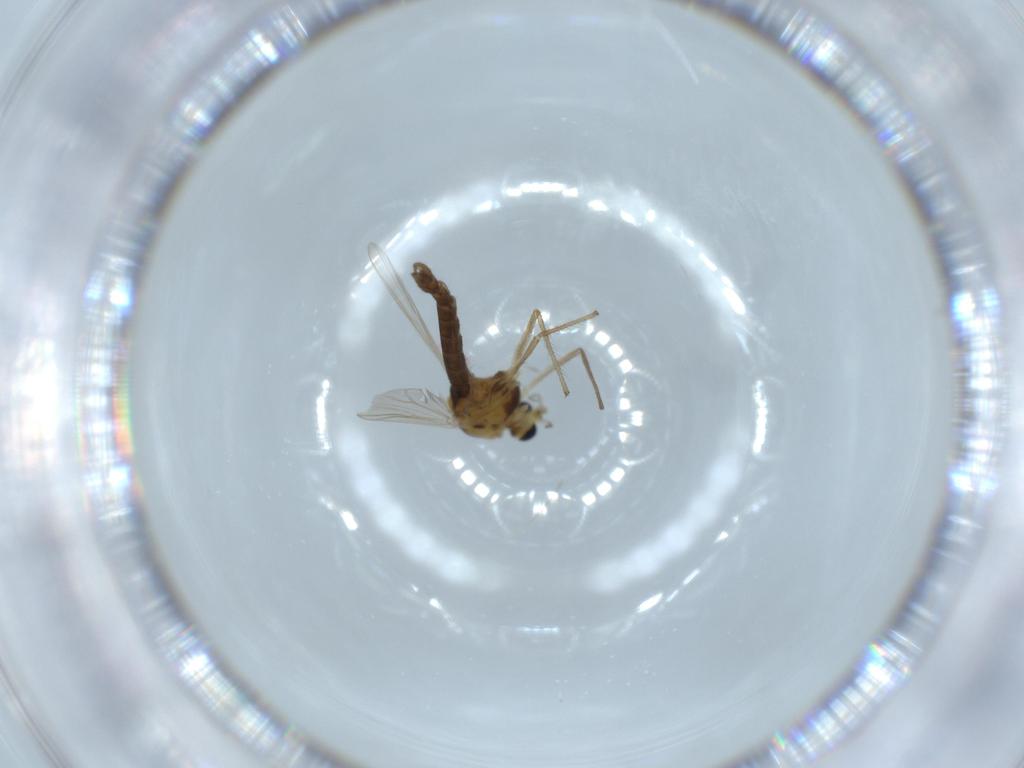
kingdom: Animalia
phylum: Arthropoda
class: Insecta
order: Diptera
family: Chironomidae
